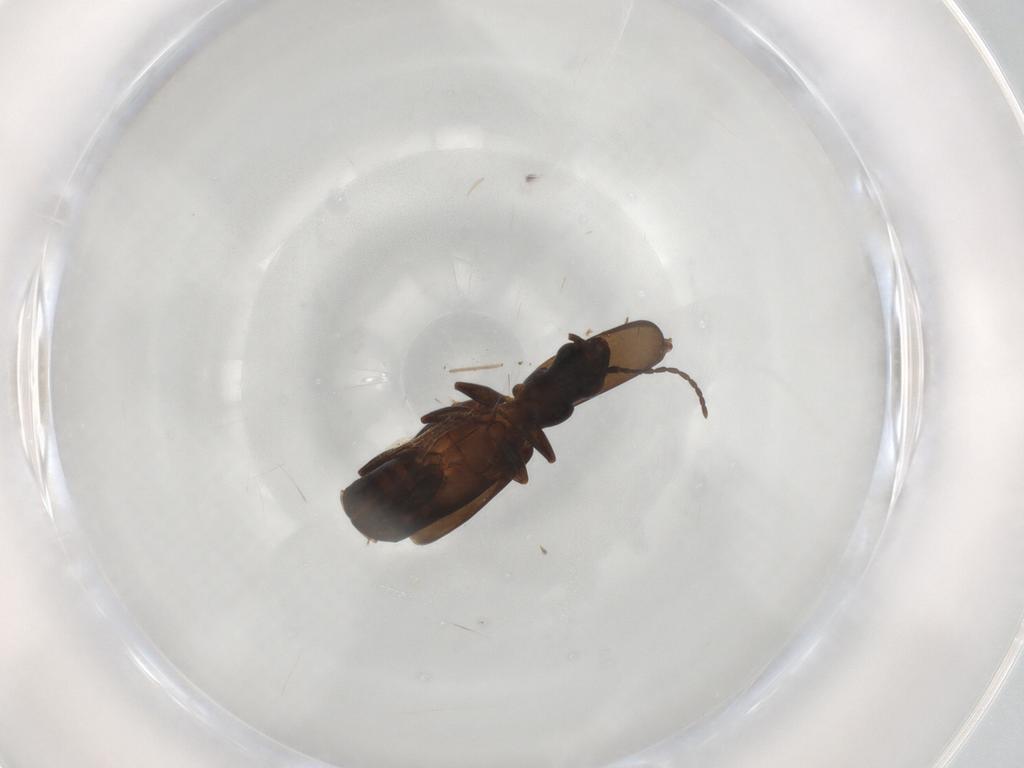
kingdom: Animalia
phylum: Arthropoda
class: Insecta
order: Coleoptera
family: Carabidae
